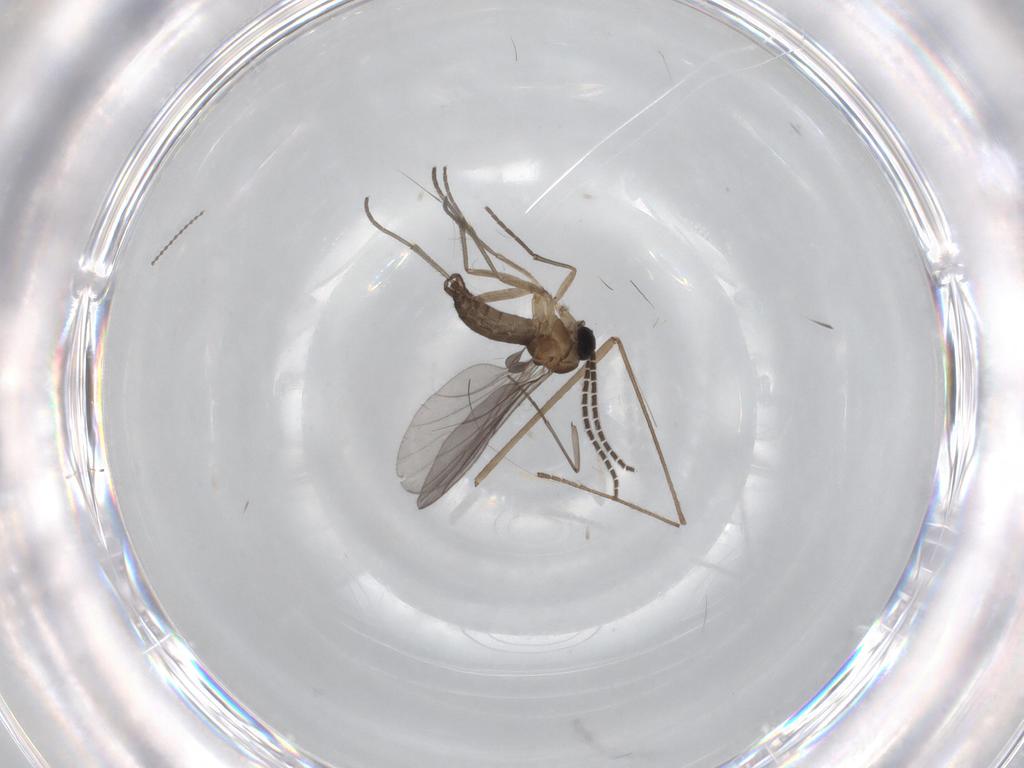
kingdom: Animalia
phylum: Arthropoda
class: Insecta
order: Diptera
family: Sciaridae
